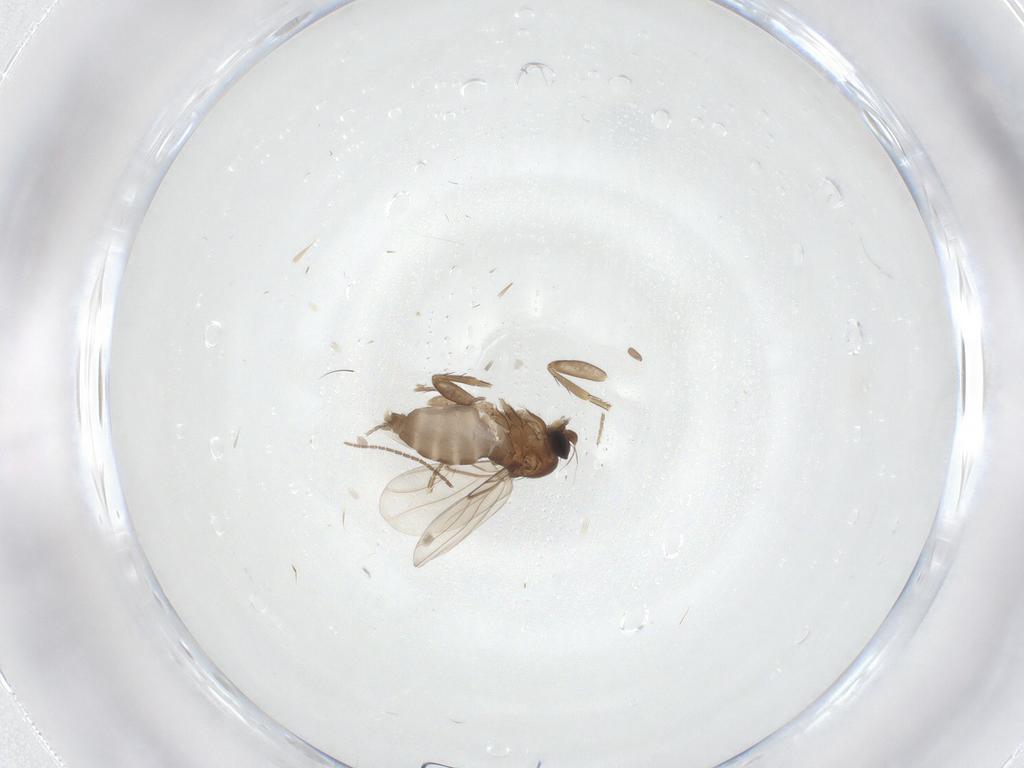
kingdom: Animalia
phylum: Arthropoda
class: Insecta
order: Diptera
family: Phoridae
